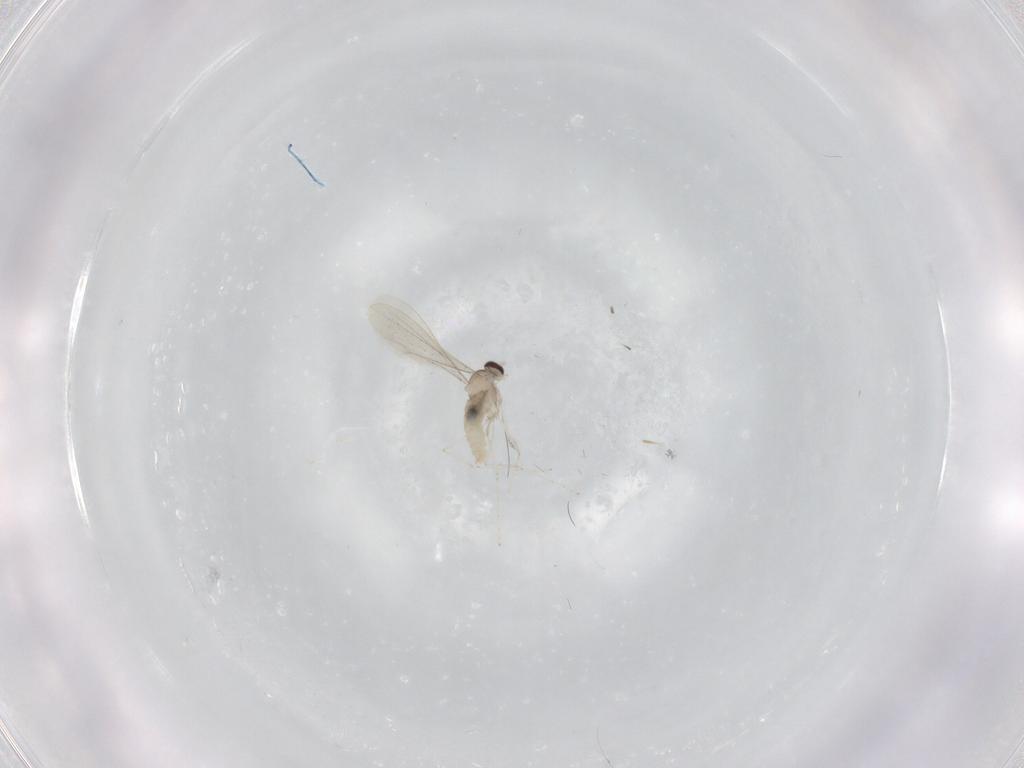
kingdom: Animalia
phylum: Arthropoda
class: Insecta
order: Diptera
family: Cecidomyiidae
